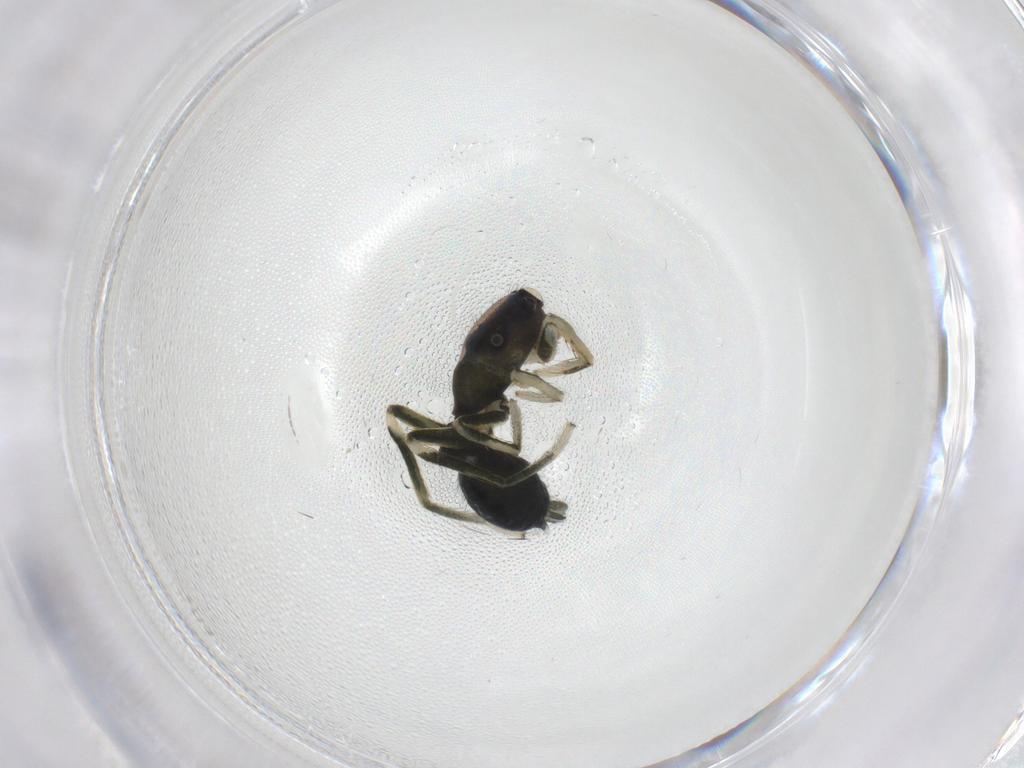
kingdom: Animalia
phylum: Arthropoda
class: Arachnida
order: Araneae
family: Salticidae
